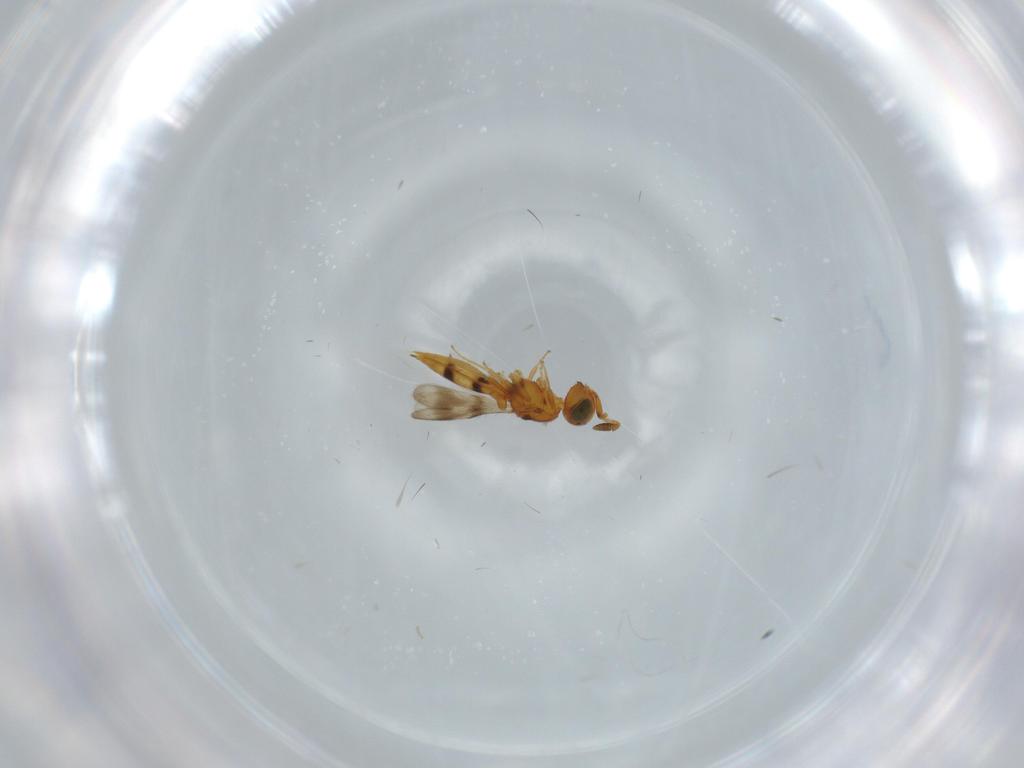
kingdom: Animalia
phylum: Arthropoda
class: Insecta
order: Hymenoptera
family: Scelionidae
